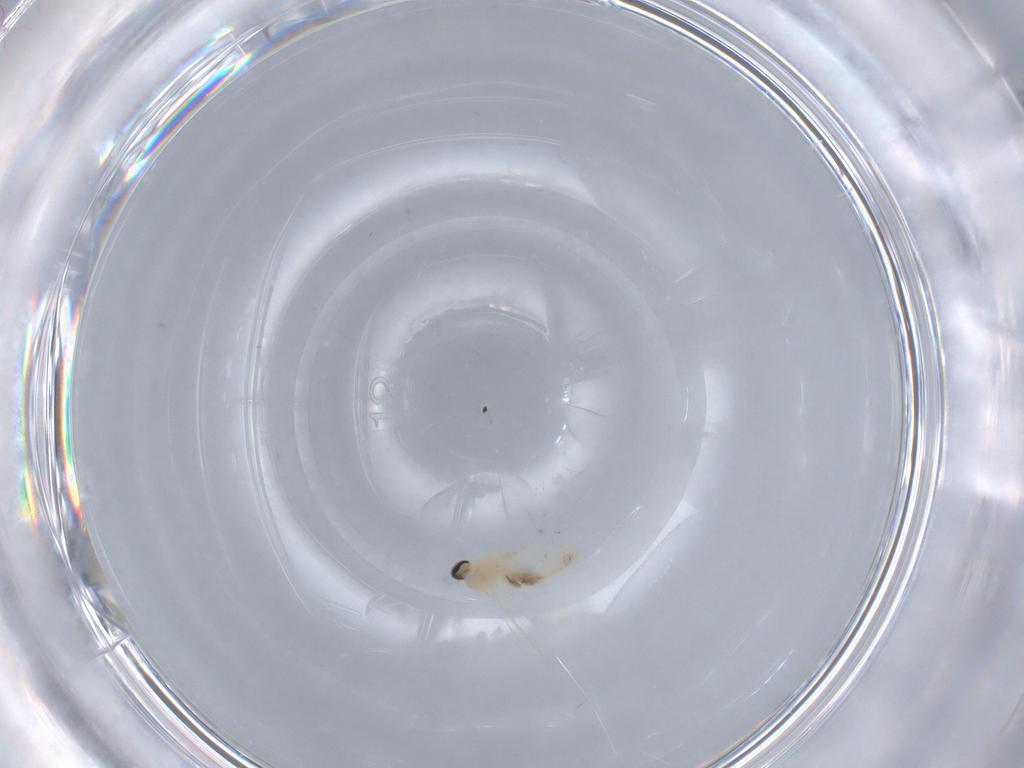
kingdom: Animalia
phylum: Arthropoda
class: Insecta
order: Diptera
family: Cecidomyiidae
